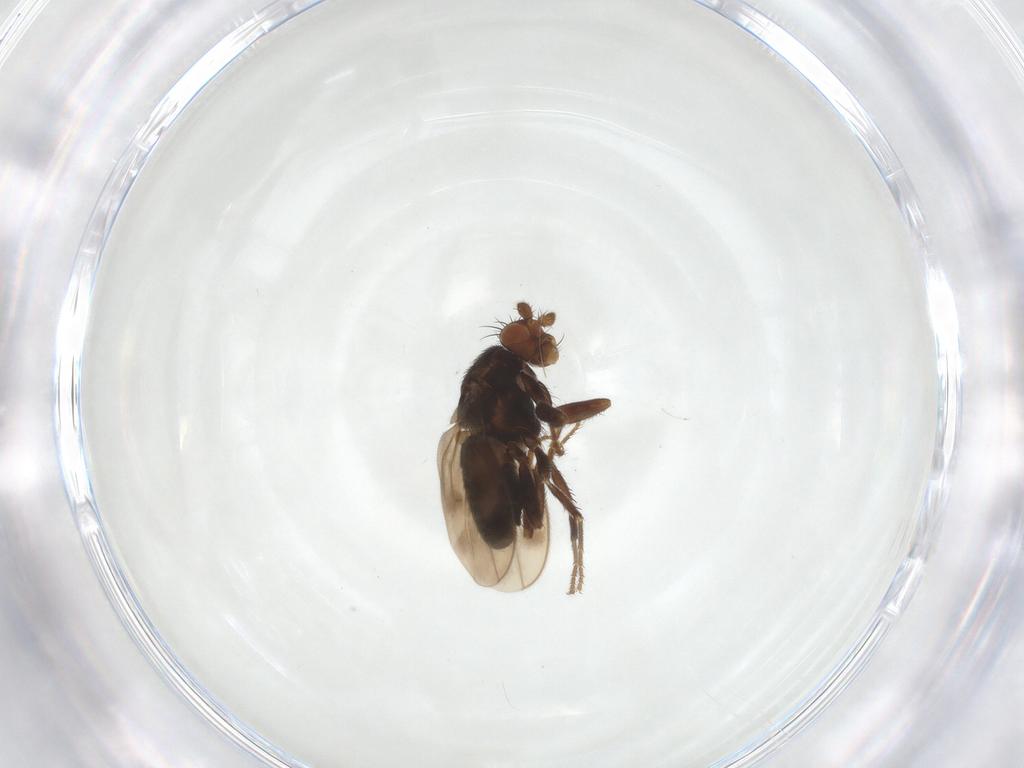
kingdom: Animalia
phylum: Arthropoda
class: Insecta
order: Diptera
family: Sphaeroceridae
